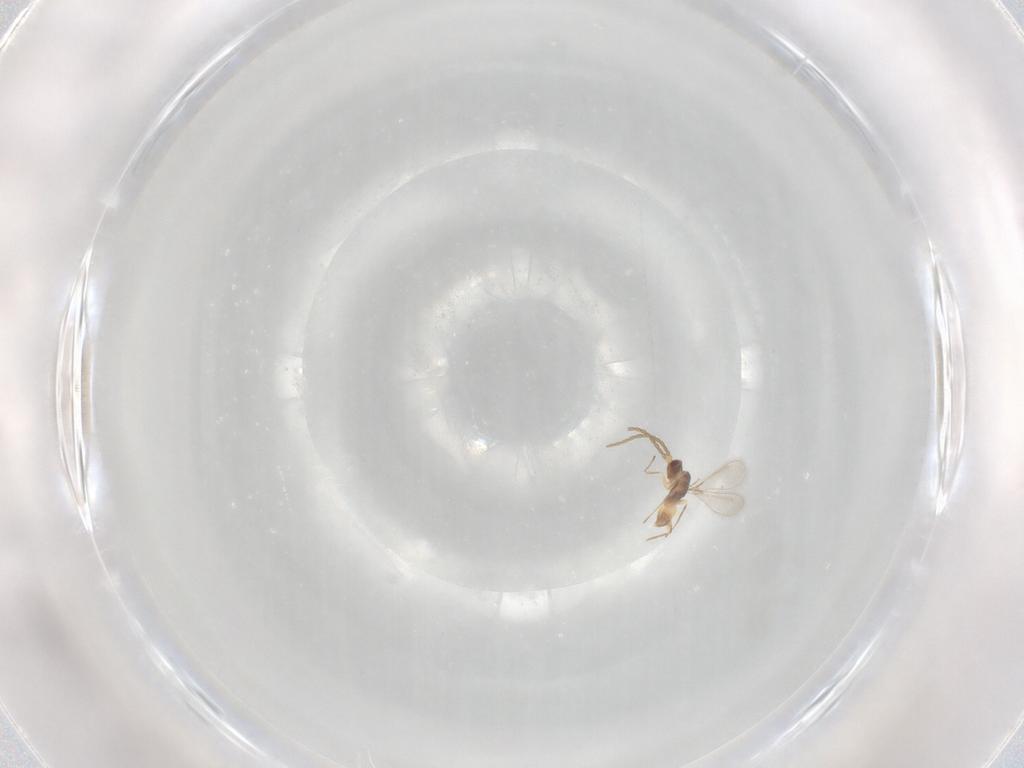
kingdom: Animalia
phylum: Arthropoda
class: Insecta
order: Hymenoptera
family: Mymaridae
